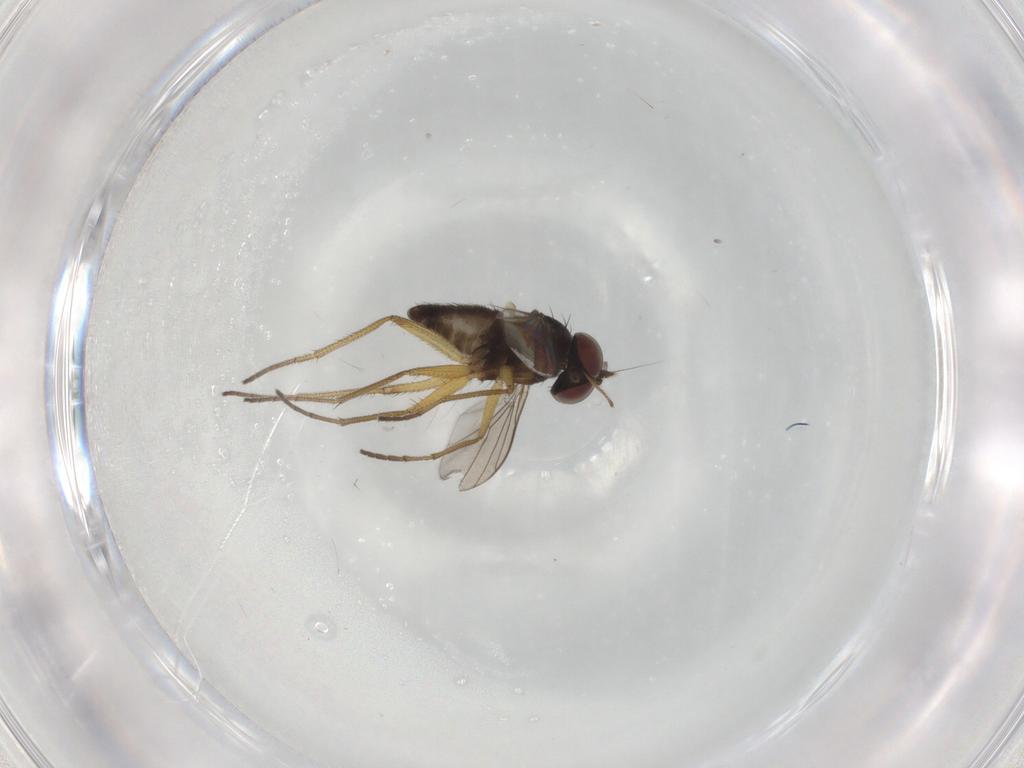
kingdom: Animalia
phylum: Arthropoda
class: Insecta
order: Diptera
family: Dolichopodidae
